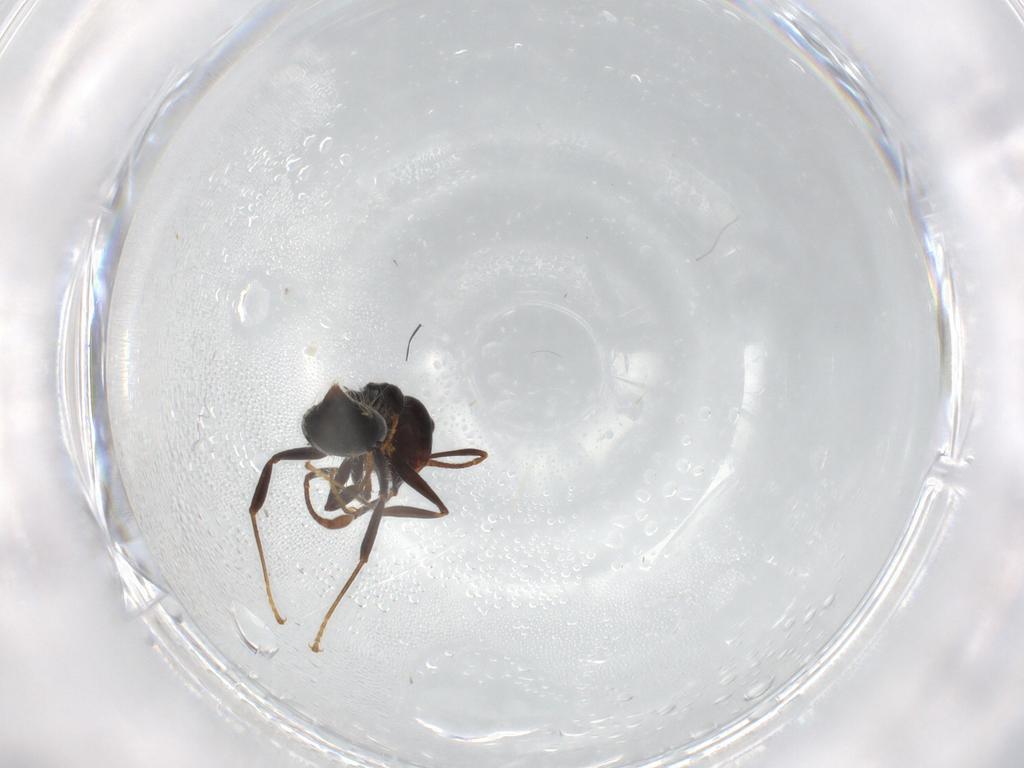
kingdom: Animalia
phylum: Arthropoda
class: Insecta
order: Hymenoptera
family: Formicidae
